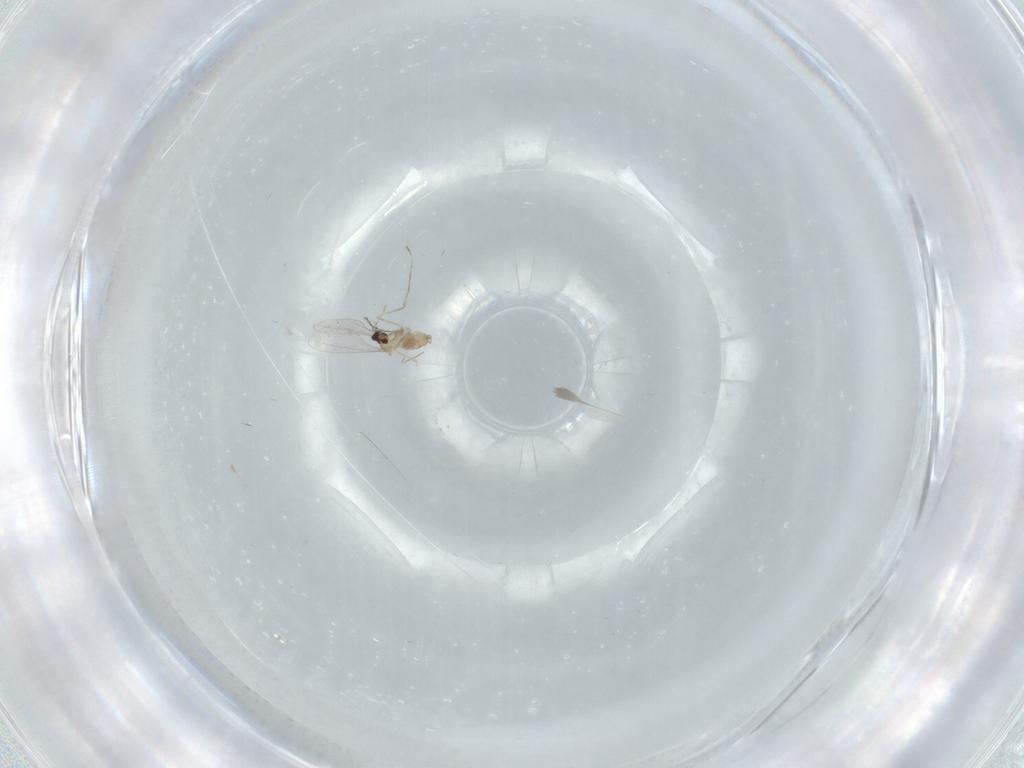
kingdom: Animalia
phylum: Arthropoda
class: Insecta
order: Diptera
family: Cecidomyiidae
